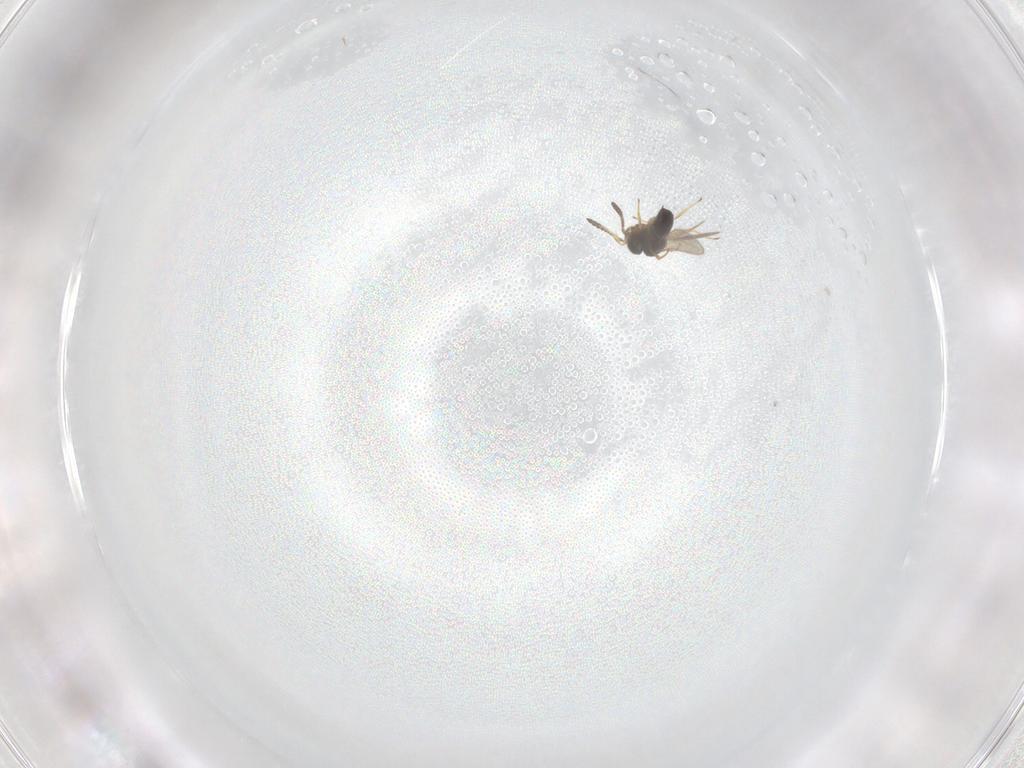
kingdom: Animalia
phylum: Arthropoda
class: Insecta
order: Hymenoptera
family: Scelionidae
